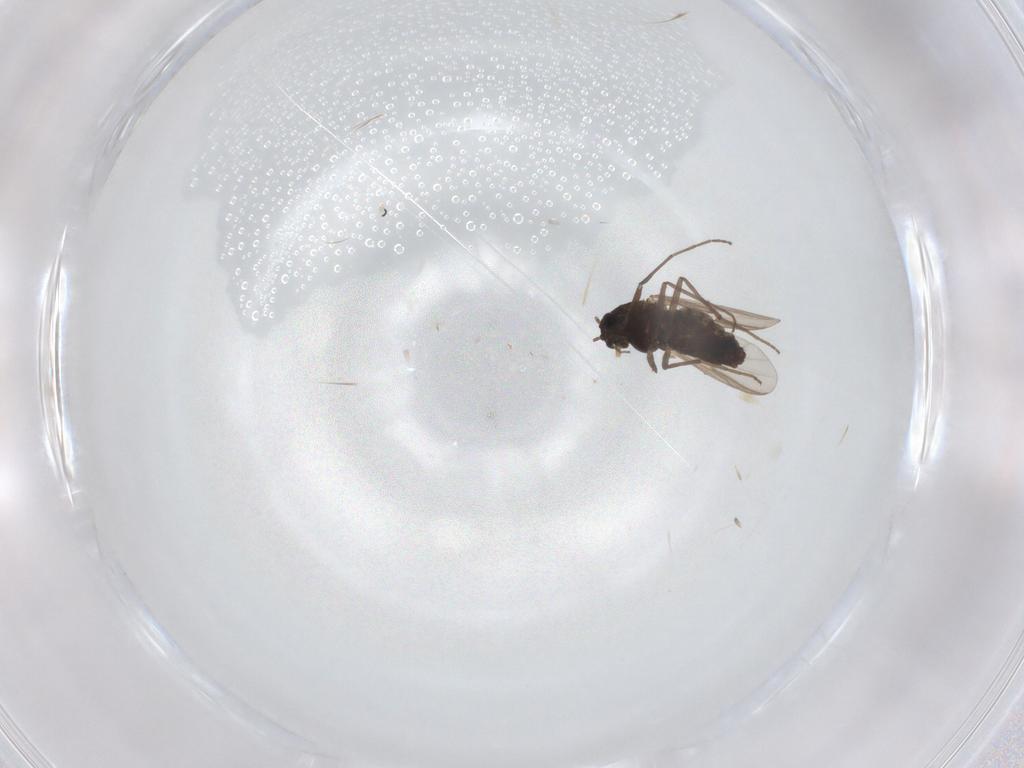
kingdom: Animalia
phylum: Arthropoda
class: Insecta
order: Diptera
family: Chironomidae
